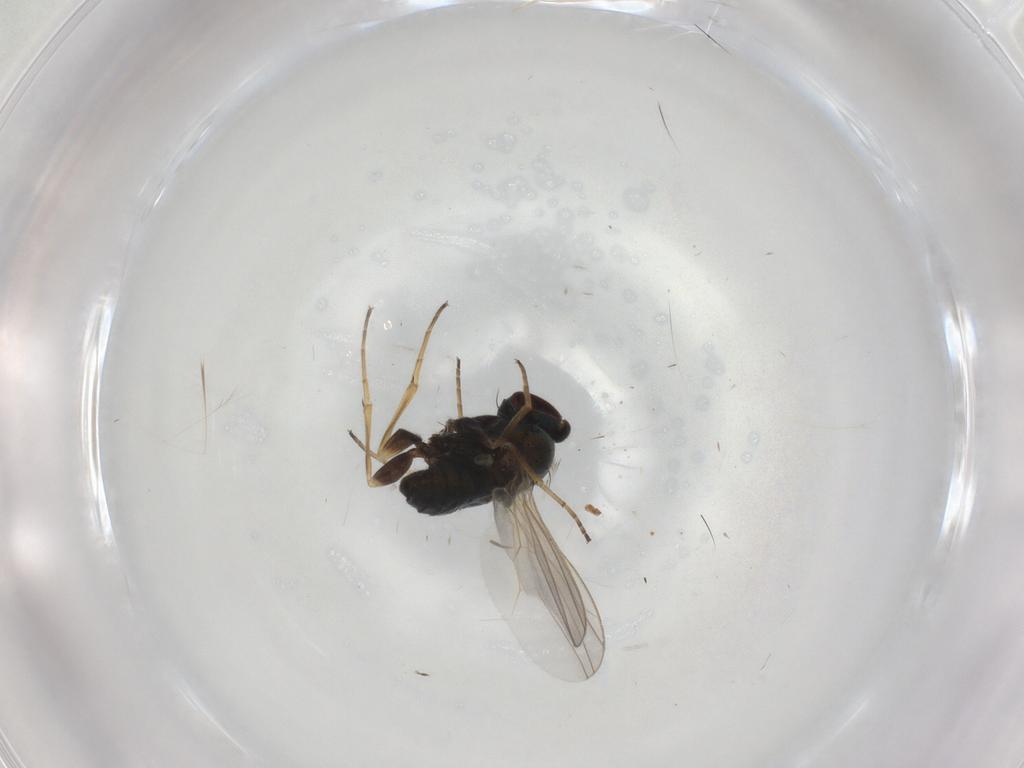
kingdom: Animalia
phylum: Arthropoda
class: Insecta
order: Diptera
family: Dolichopodidae
